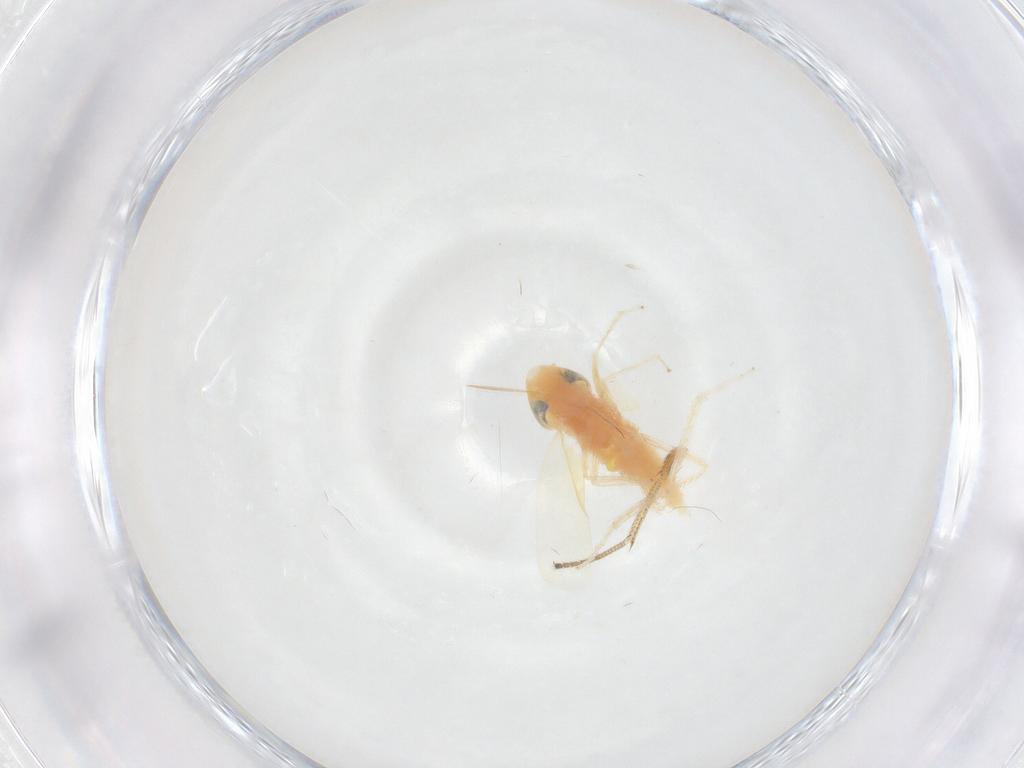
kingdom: Animalia
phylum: Arthropoda
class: Insecta
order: Hemiptera
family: Cicadellidae
